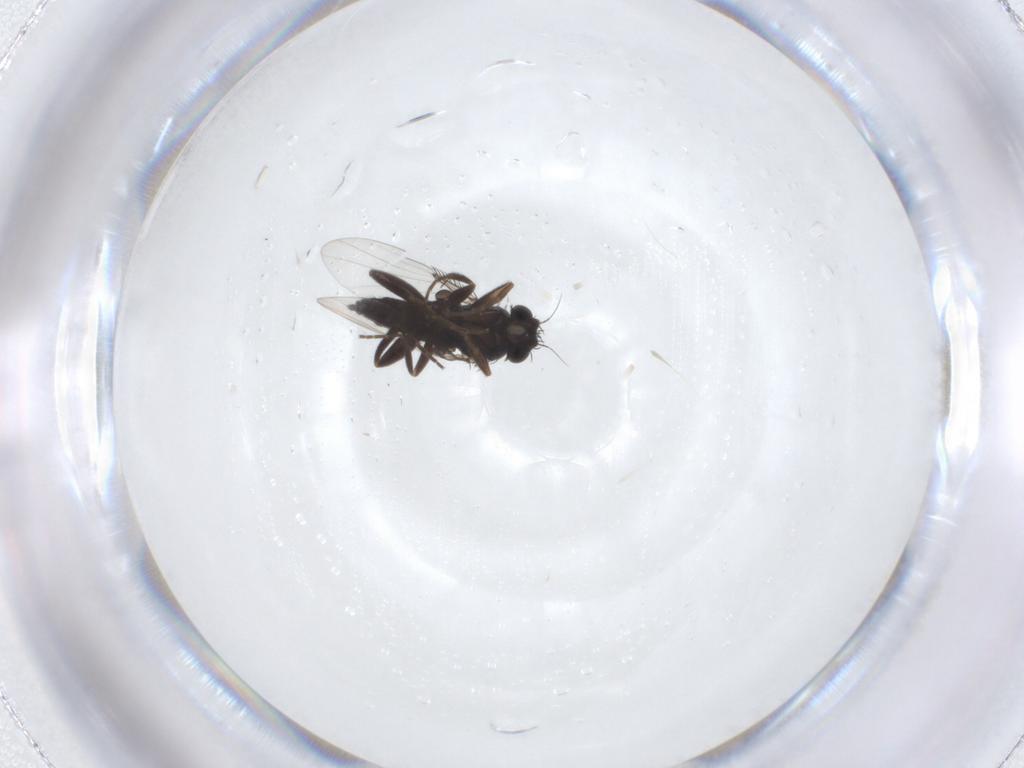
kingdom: Animalia
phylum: Arthropoda
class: Insecta
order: Diptera
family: Phoridae
